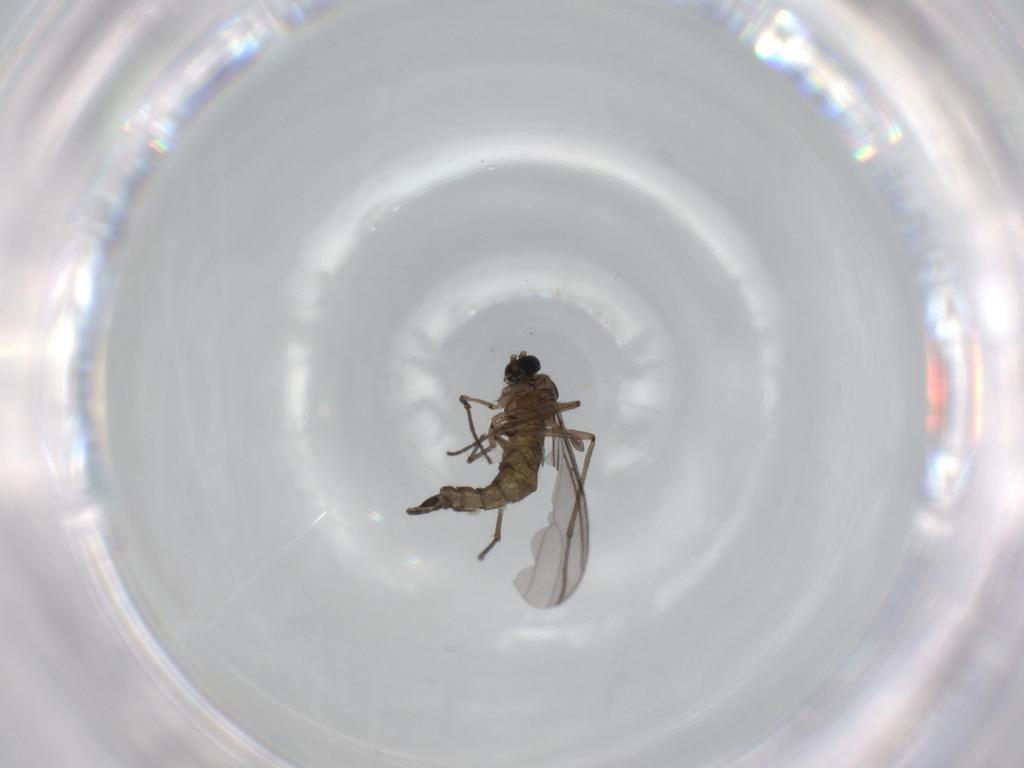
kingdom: Animalia
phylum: Arthropoda
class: Insecta
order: Diptera
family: Sciaridae
